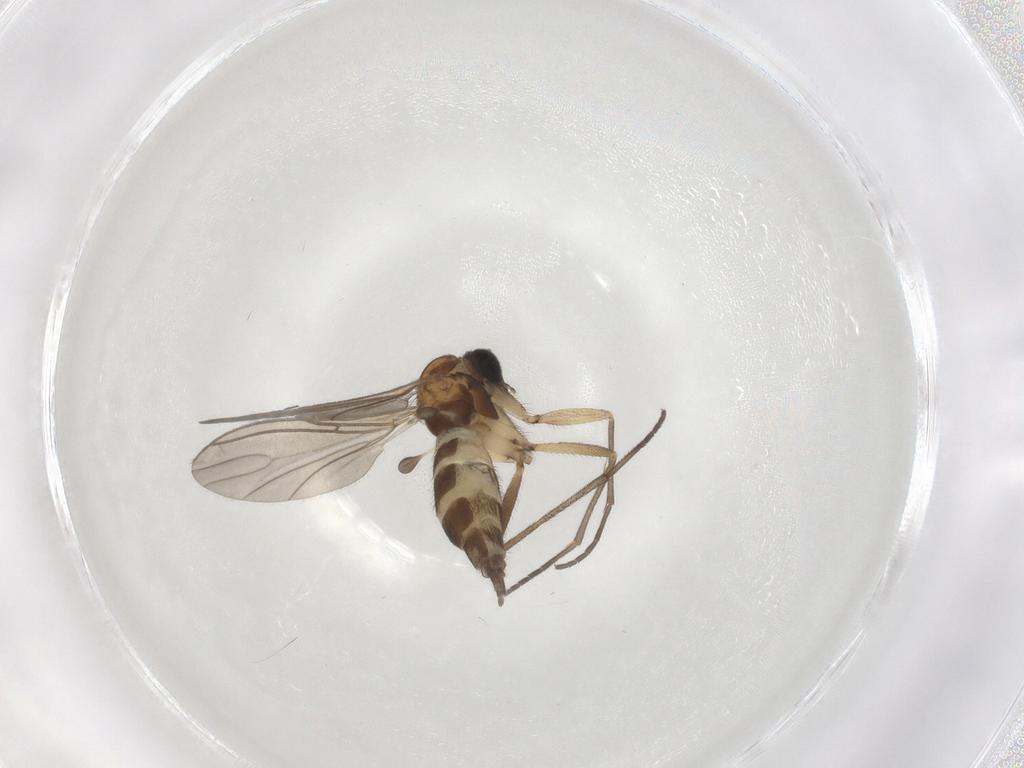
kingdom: Animalia
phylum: Arthropoda
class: Insecta
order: Diptera
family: Sciaridae
